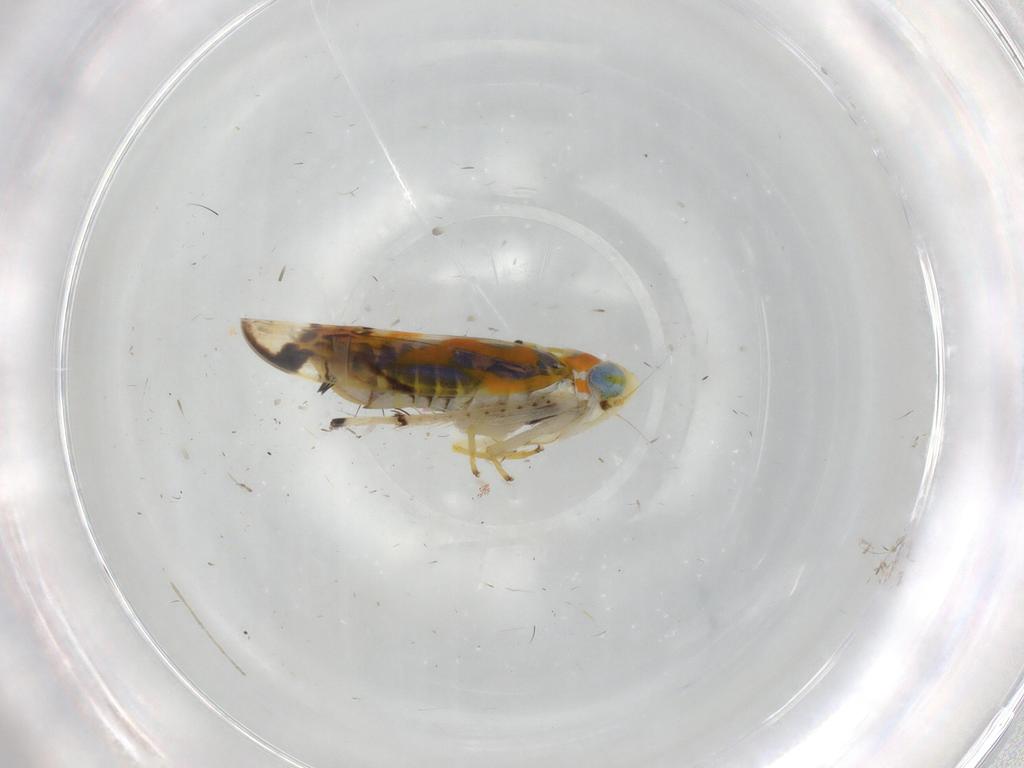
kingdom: Animalia
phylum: Arthropoda
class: Insecta
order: Hemiptera
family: Cicadellidae
